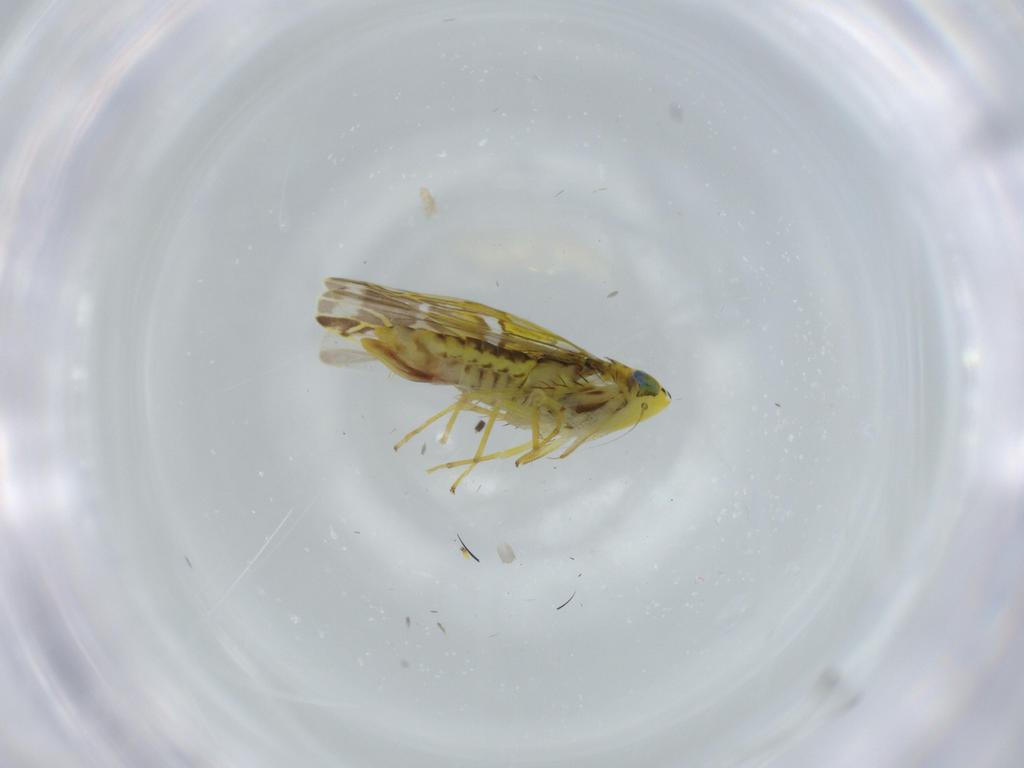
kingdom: Animalia
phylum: Arthropoda
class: Insecta
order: Hemiptera
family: Cicadellidae
